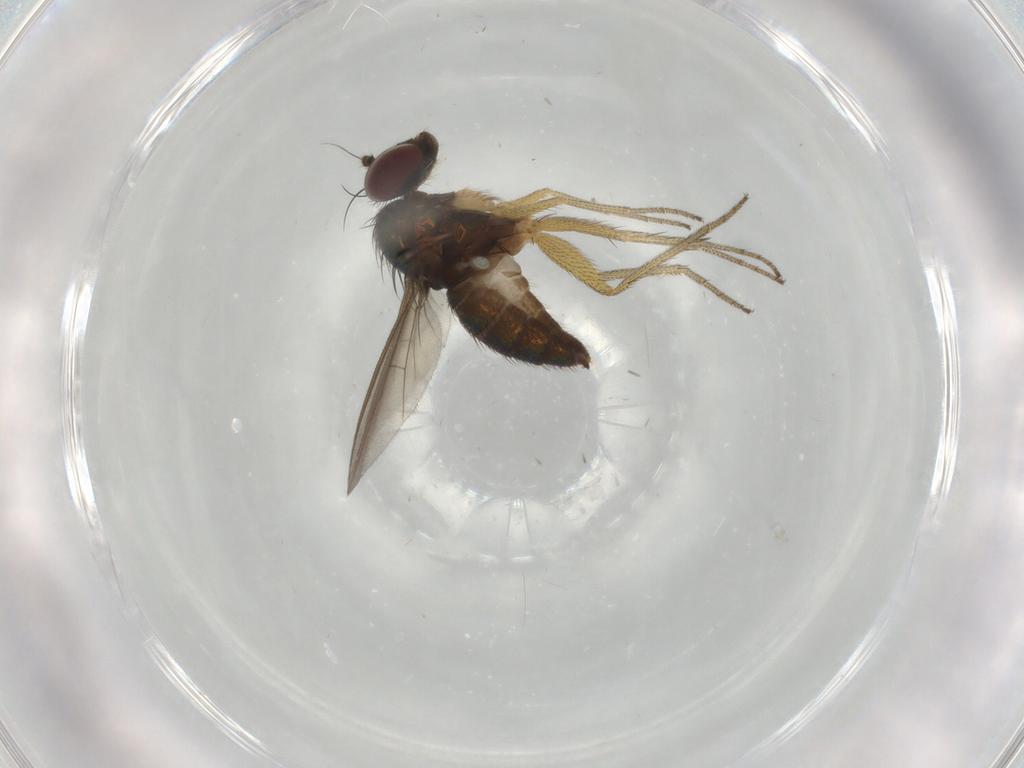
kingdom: Animalia
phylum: Arthropoda
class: Insecta
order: Diptera
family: Dolichopodidae
